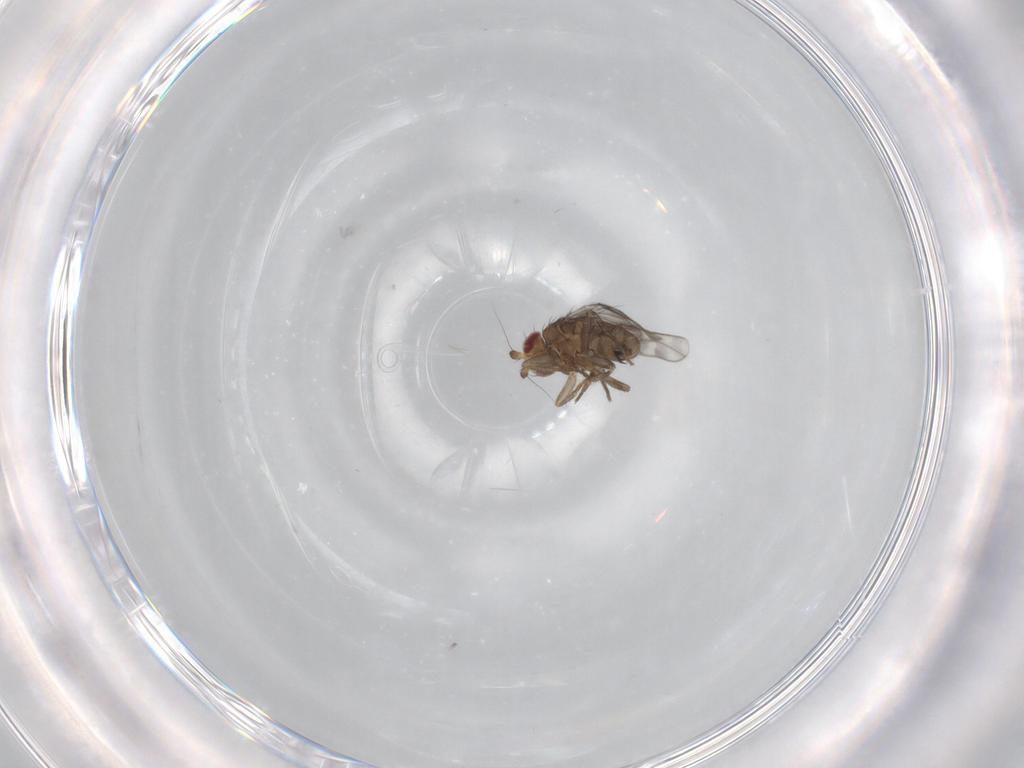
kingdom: Animalia
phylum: Arthropoda
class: Insecta
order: Diptera
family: Sphaeroceridae
